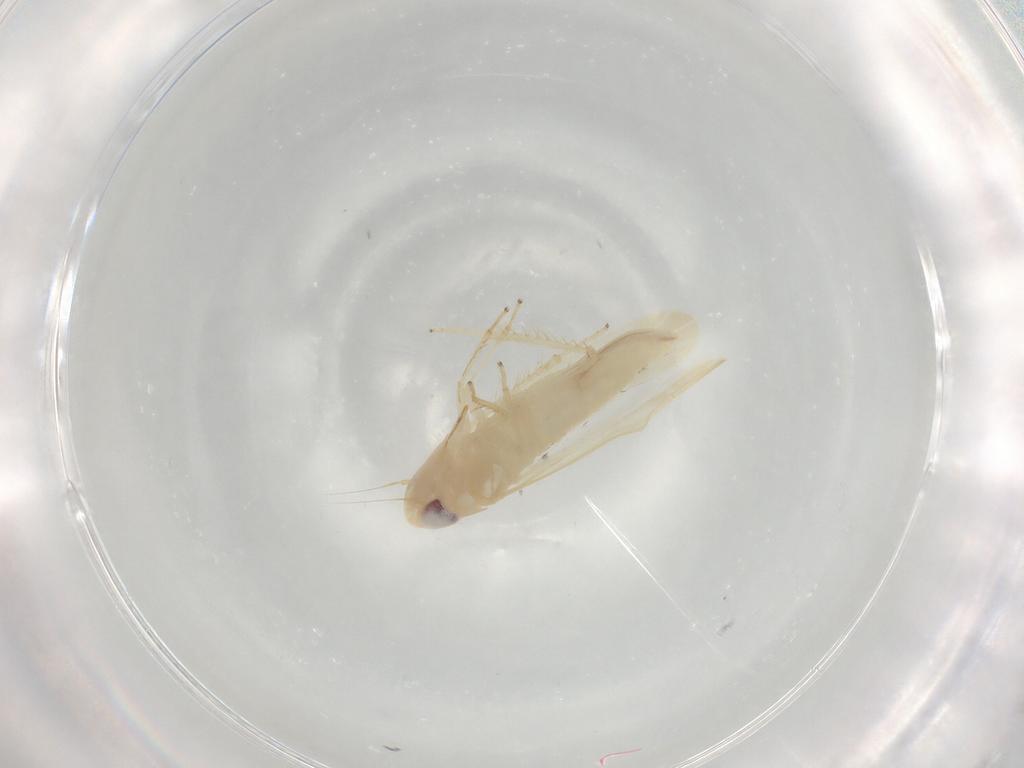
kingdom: Animalia
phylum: Arthropoda
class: Insecta
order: Hemiptera
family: Cicadellidae
